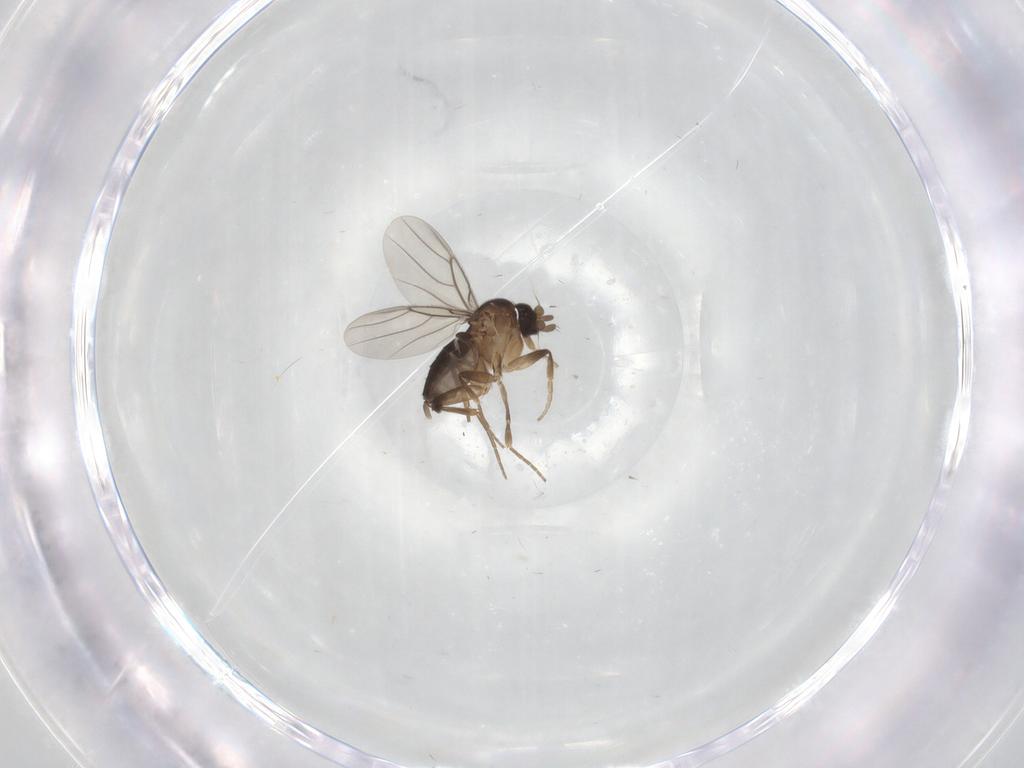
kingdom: Animalia
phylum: Arthropoda
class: Insecta
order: Diptera
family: Phoridae
